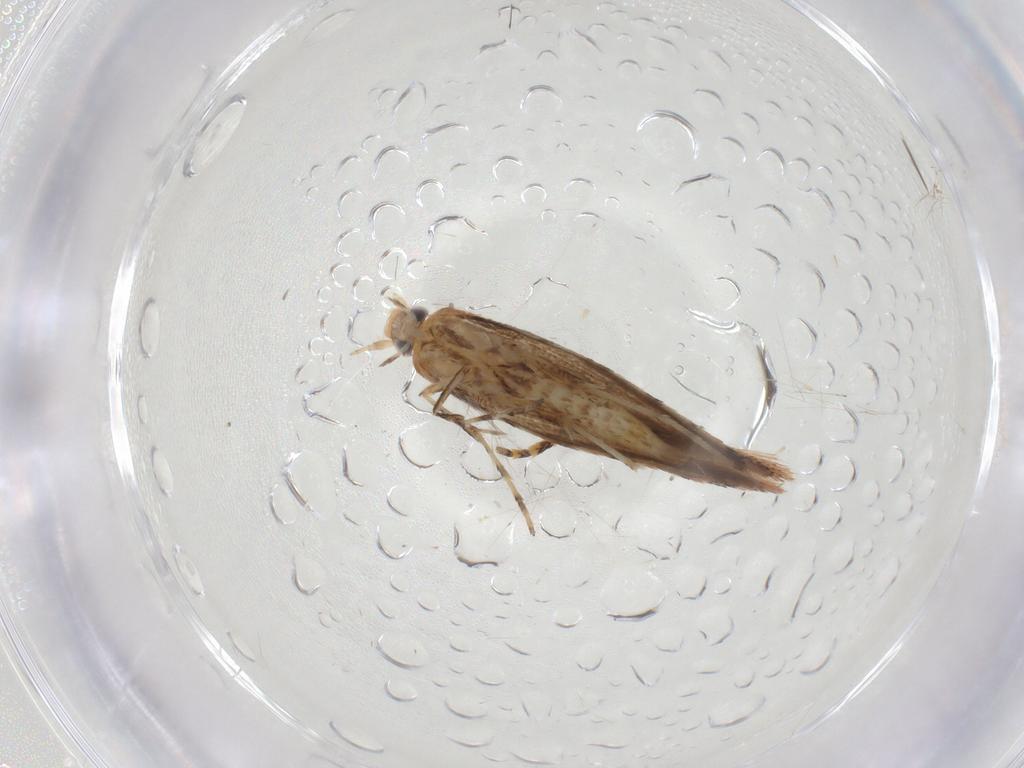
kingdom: Animalia
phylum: Arthropoda
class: Insecta
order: Lepidoptera
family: Gracillariidae
